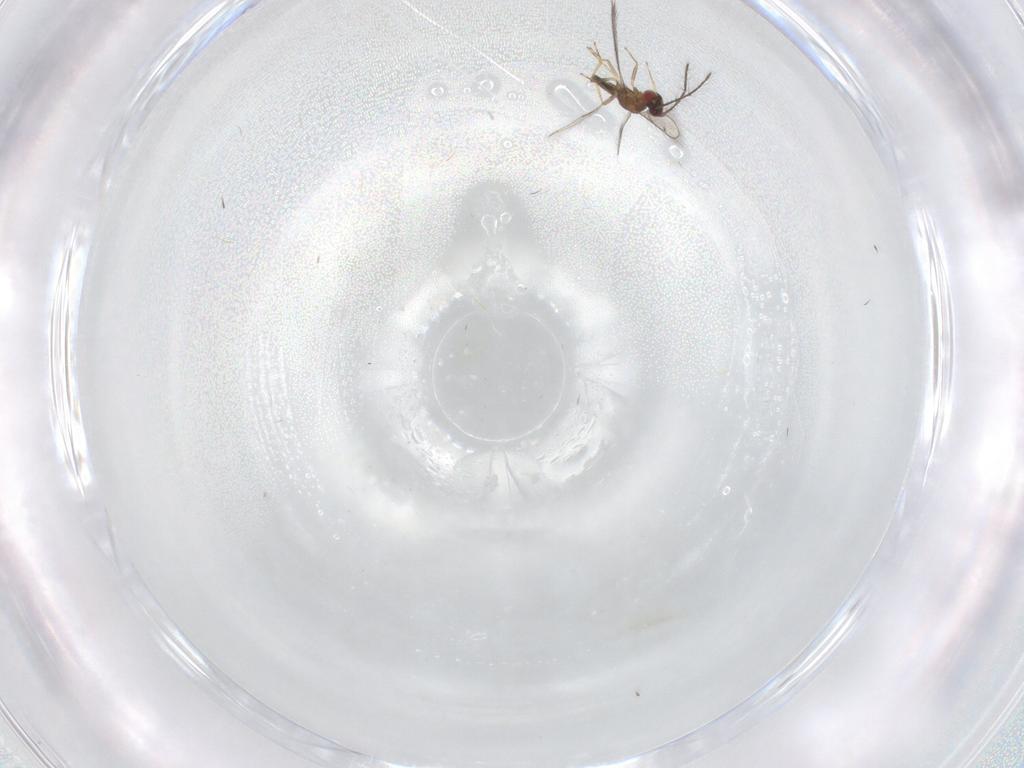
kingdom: Animalia
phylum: Arthropoda
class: Insecta
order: Hymenoptera
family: Eulophidae
